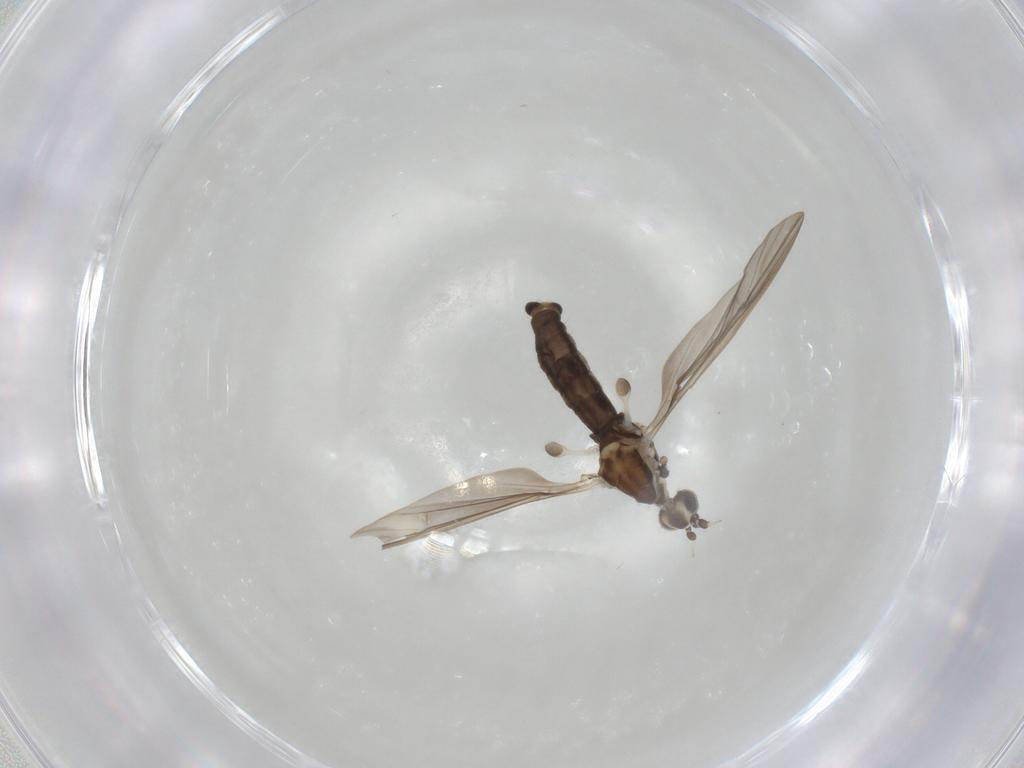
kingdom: Animalia
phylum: Arthropoda
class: Insecta
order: Diptera
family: Limoniidae
